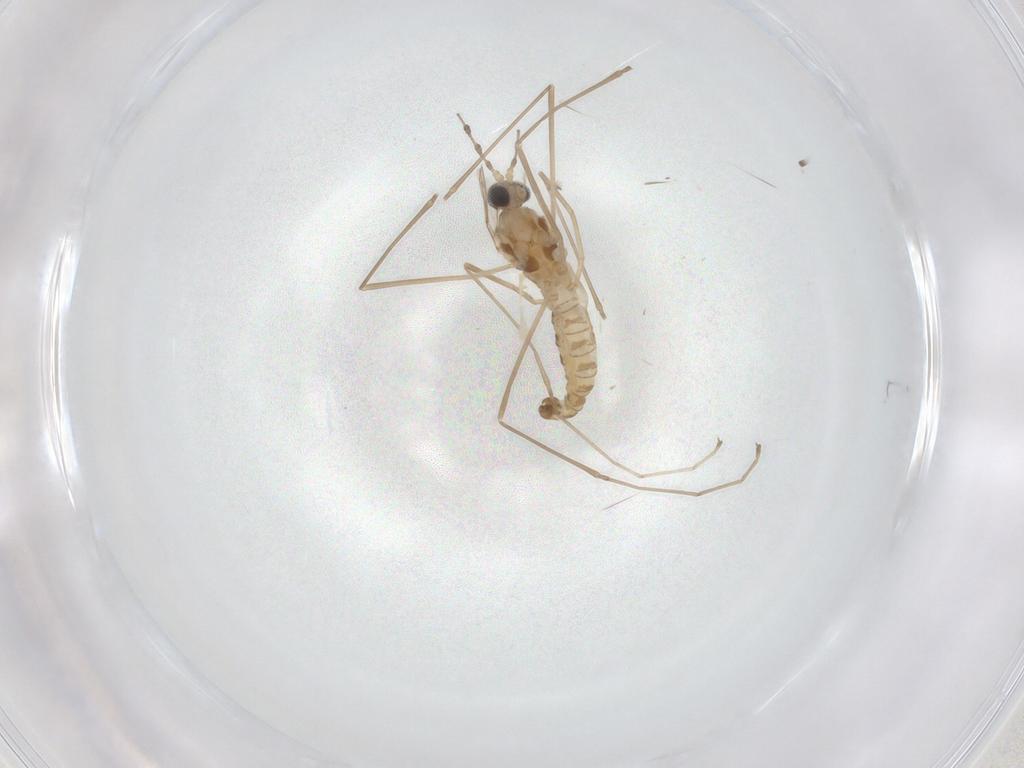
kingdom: Animalia
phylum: Arthropoda
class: Insecta
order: Diptera
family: Cecidomyiidae
